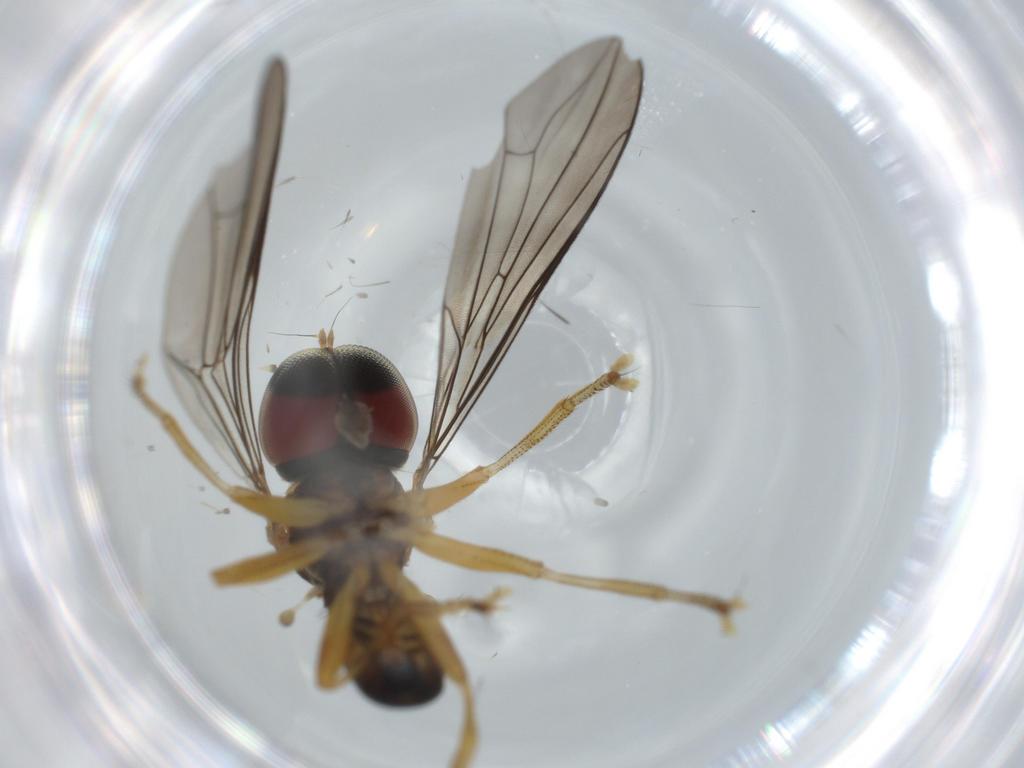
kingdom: Animalia
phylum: Arthropoda
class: Insecta
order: Diptera
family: Pipunculidae
